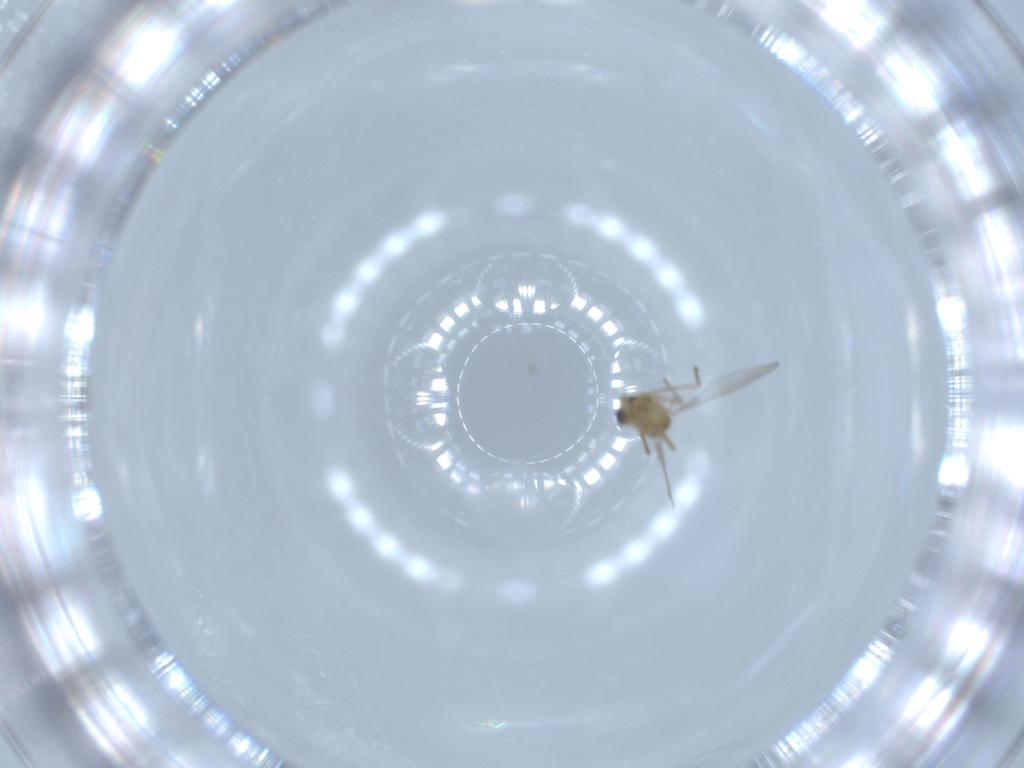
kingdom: Animalia
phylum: Arthropoda
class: Insecta
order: Diptera
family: Chironomidae
